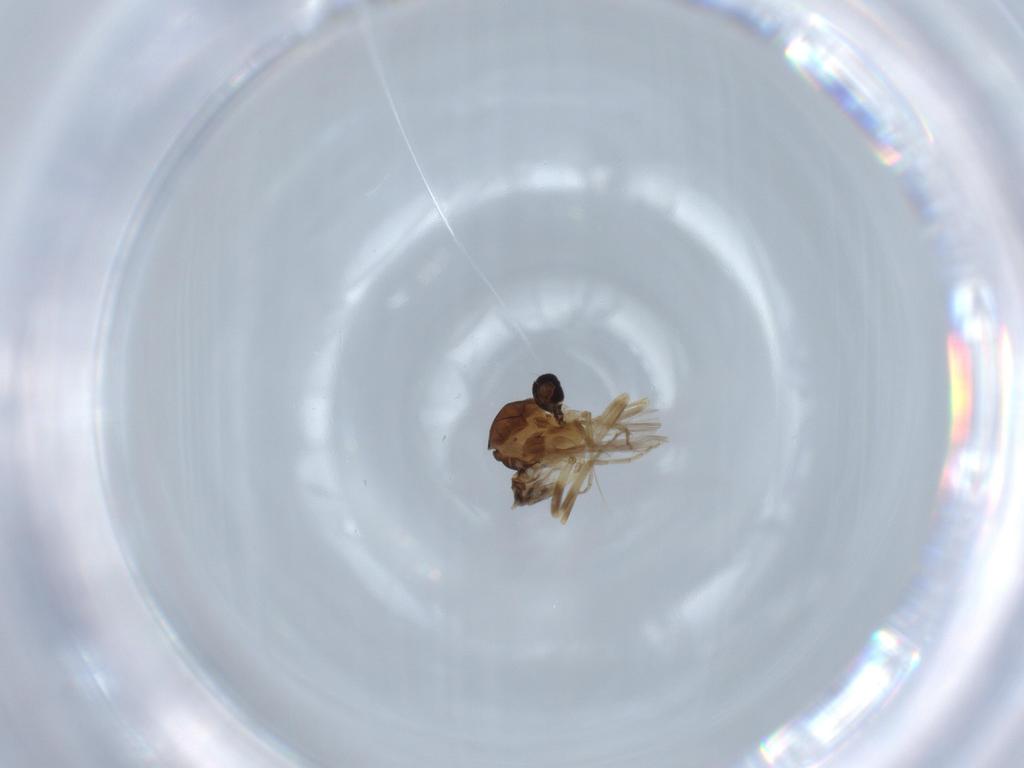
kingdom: Animalia
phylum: Arthropoda
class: Insecta
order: Diptera
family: Ceratopogonidae
